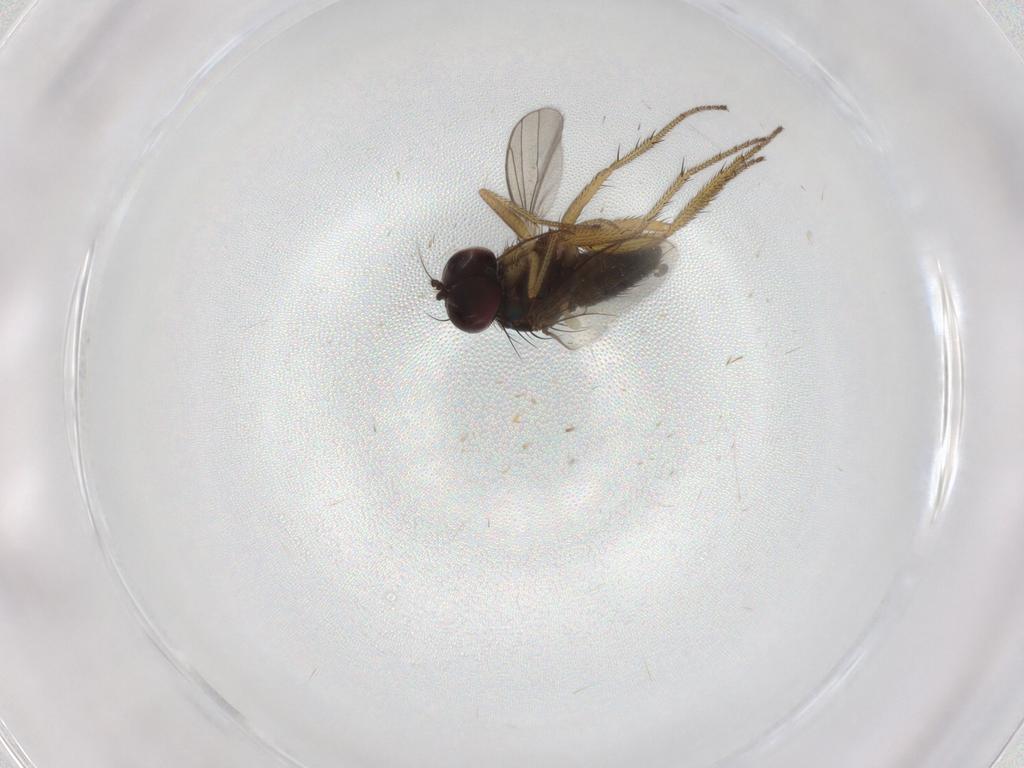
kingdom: Animalia
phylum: Arthropoda
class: Insecta
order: Diptera
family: Sciaridae
